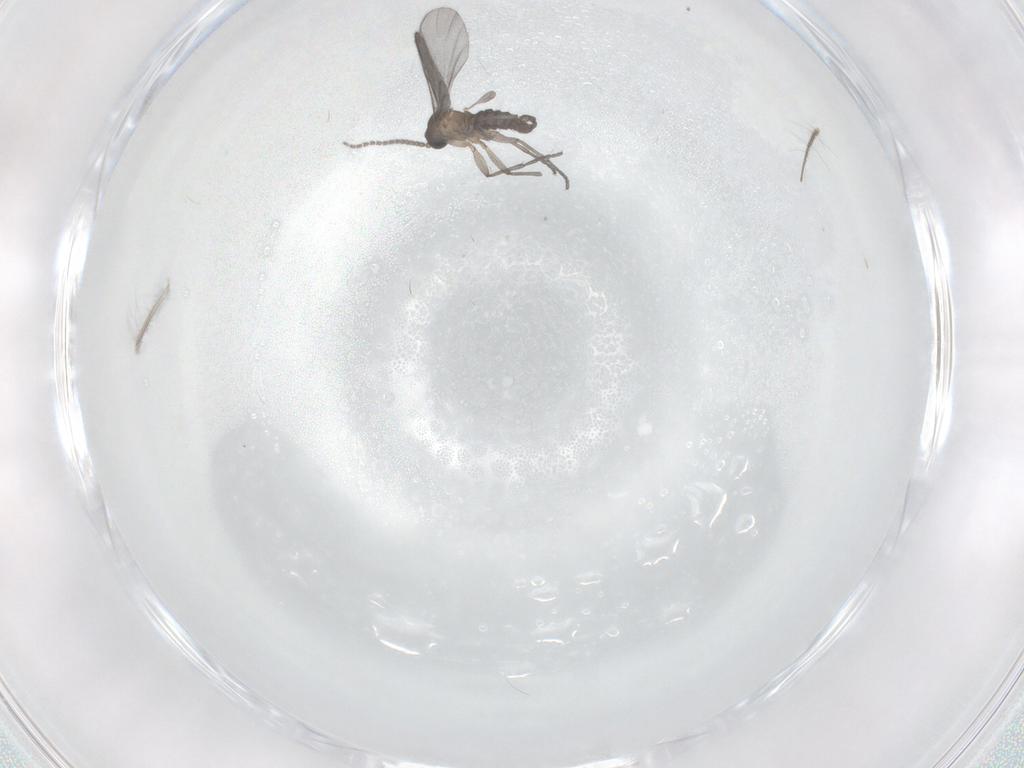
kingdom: Animalia
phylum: Arthropoda
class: Insecta
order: Diptera
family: Chironomidae
